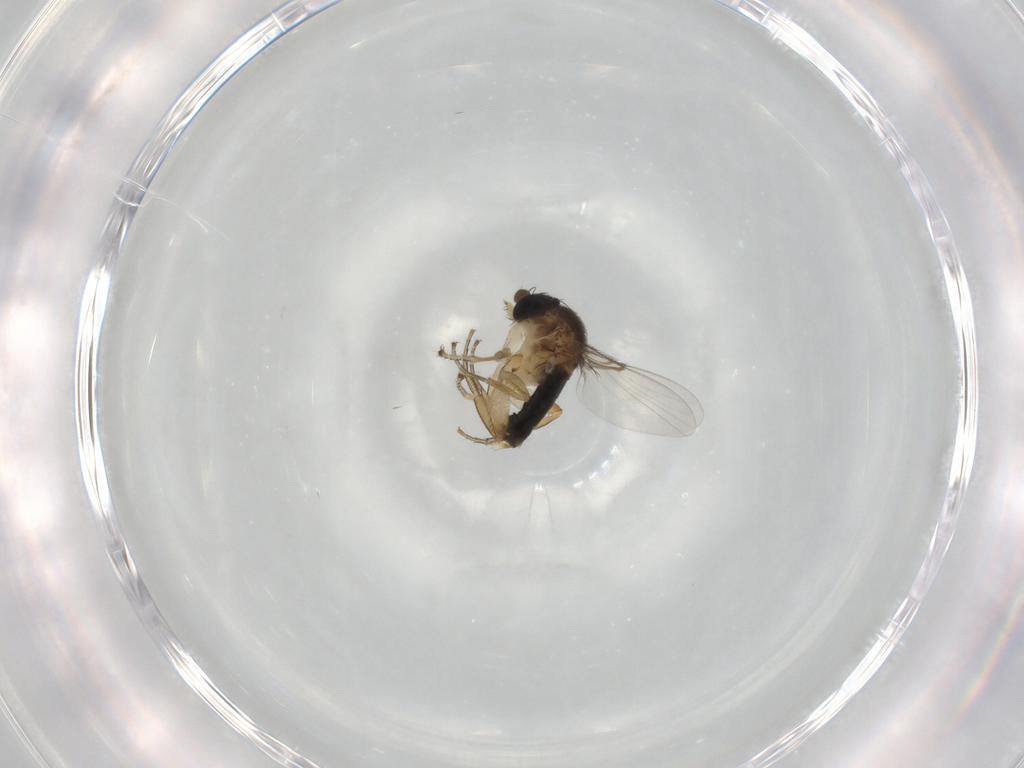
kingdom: Animalia
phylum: Arthropoda
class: Insecta
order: Diptera
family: Phoridae
